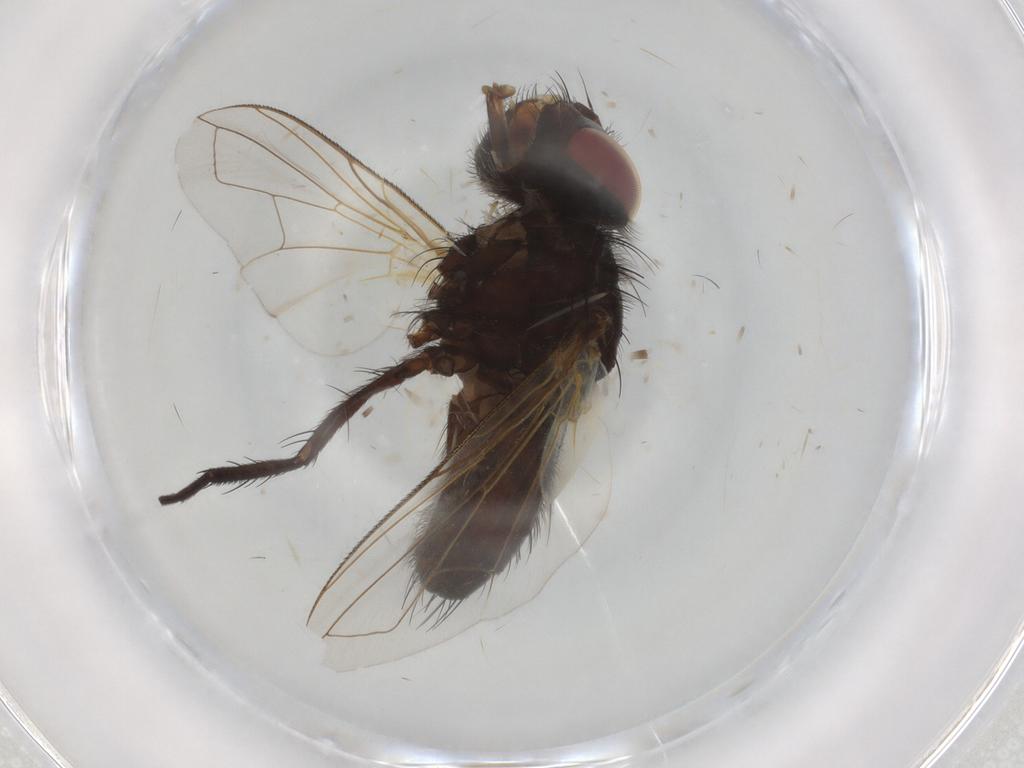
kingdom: Animalia
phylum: Arthropoda
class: Insecta
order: Diptera
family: Tachinidae
